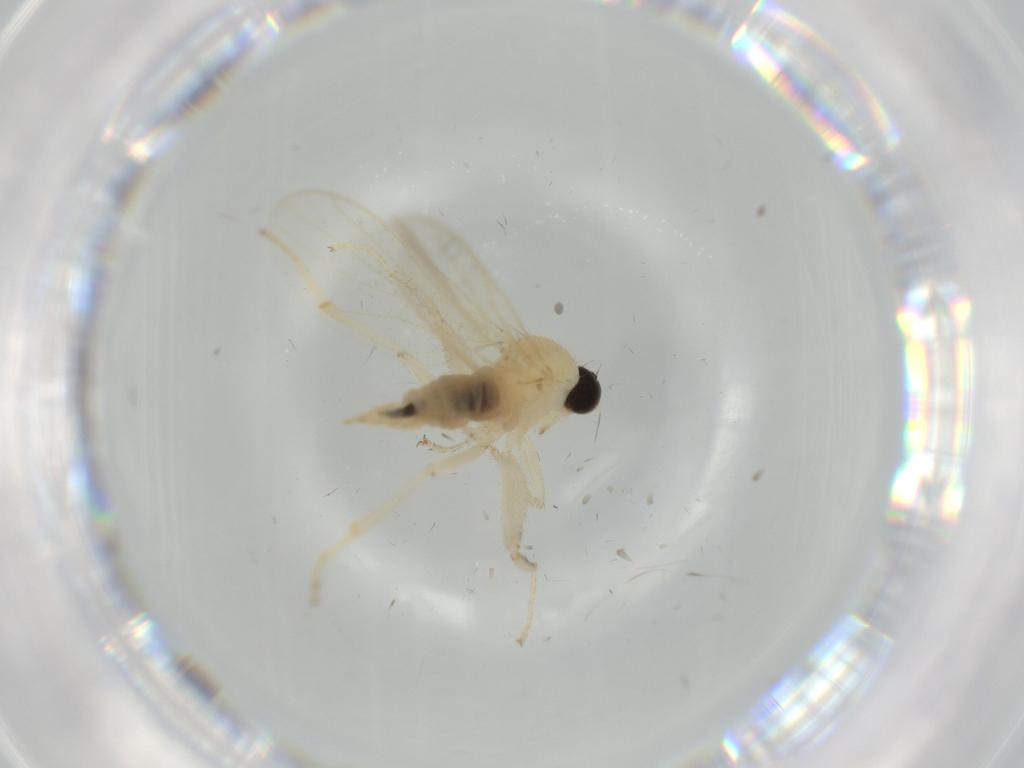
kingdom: Animalia
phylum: Arthropoda
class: Insecta
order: Diptera
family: Hybotidae
